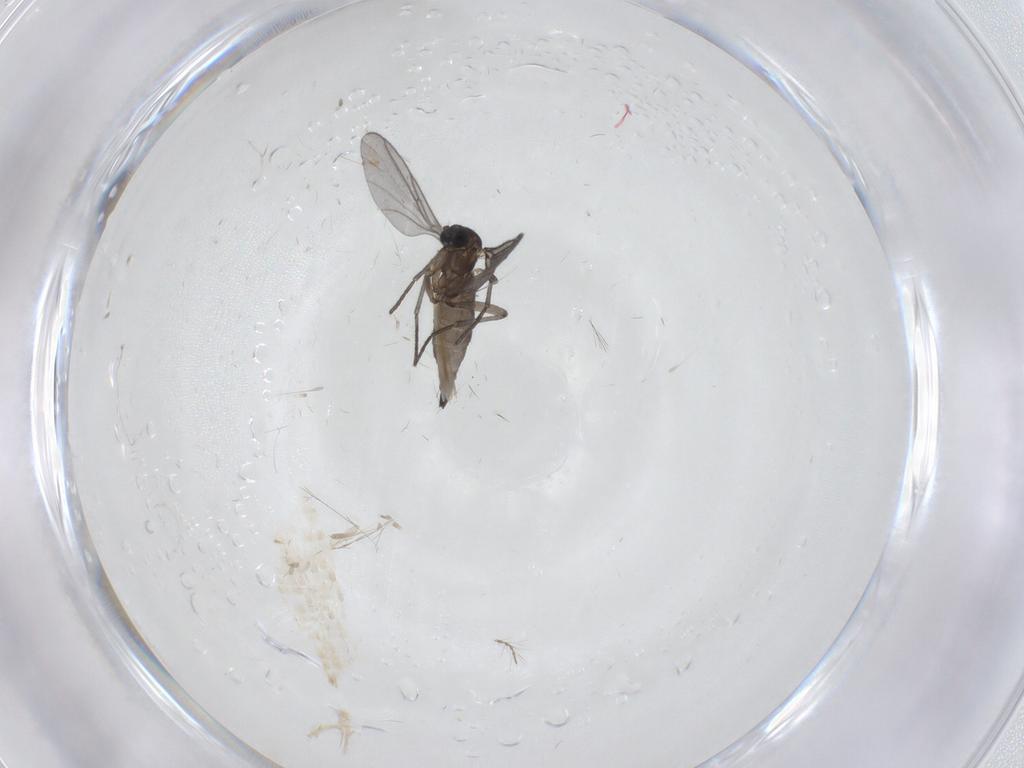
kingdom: Animalia
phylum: Arthropoda
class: Insecta
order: Diptera
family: Cecidomyiidae
